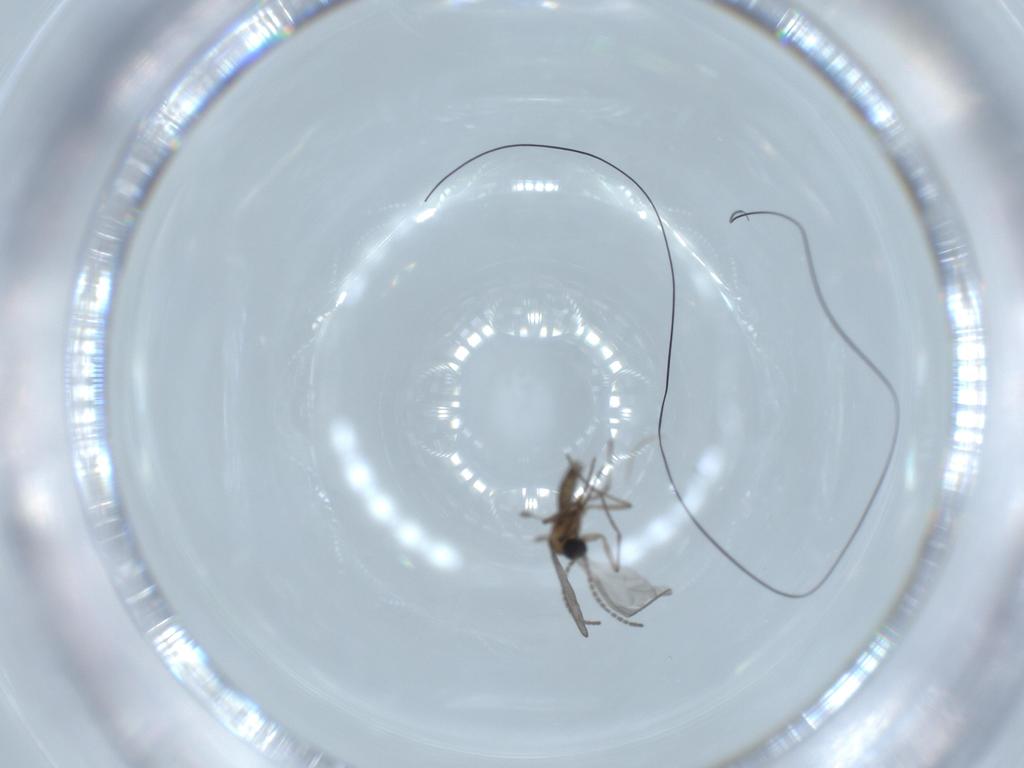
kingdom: Animalia
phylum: Arthropoda
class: Insecta
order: Diptera
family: Sciaridae
